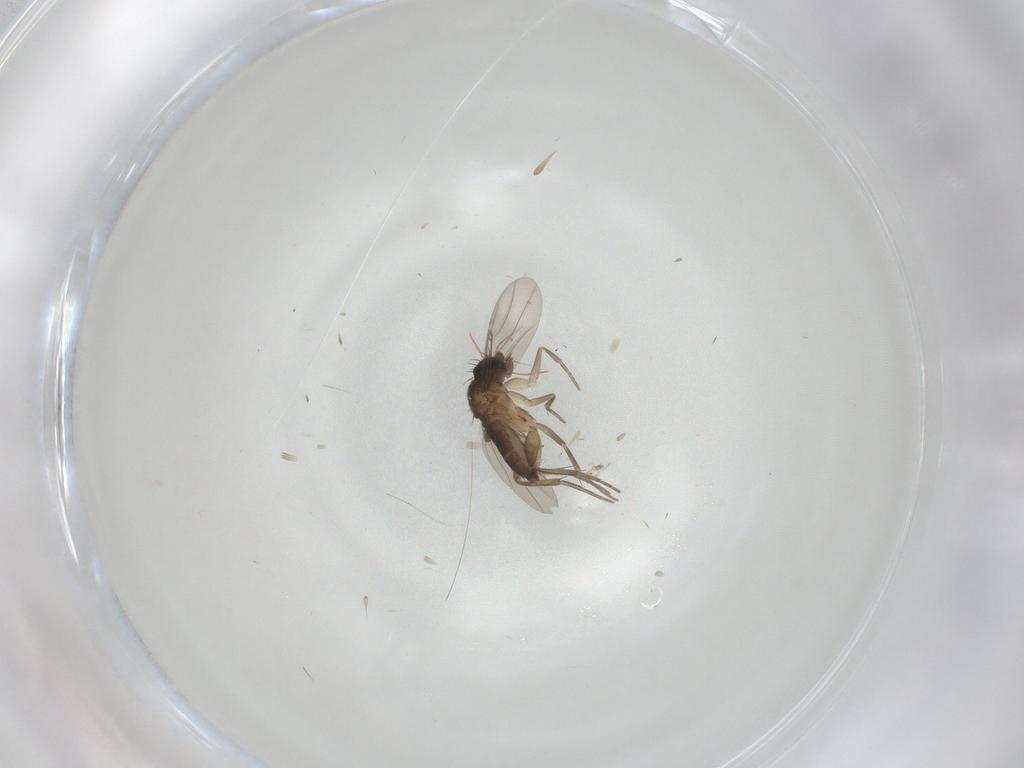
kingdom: Animalia
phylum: Arthropoda
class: Insecta
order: Diptera
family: Phoridae
